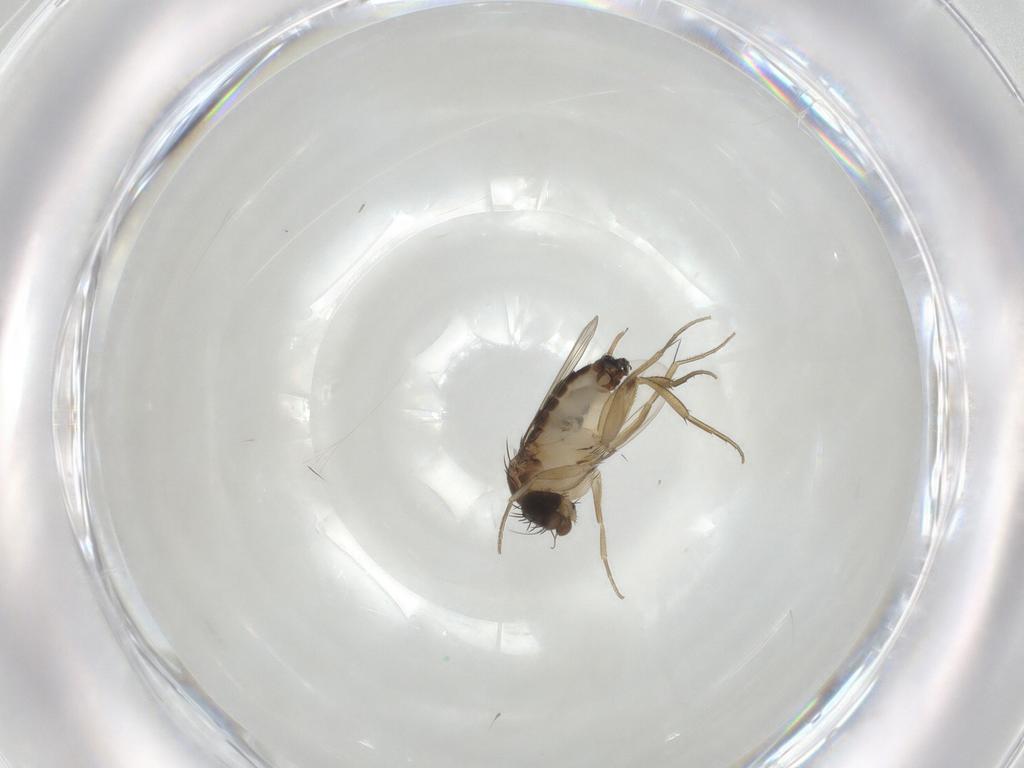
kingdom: Animalia
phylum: Arthropoda
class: Insecta
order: Diptera
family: Phoridae
